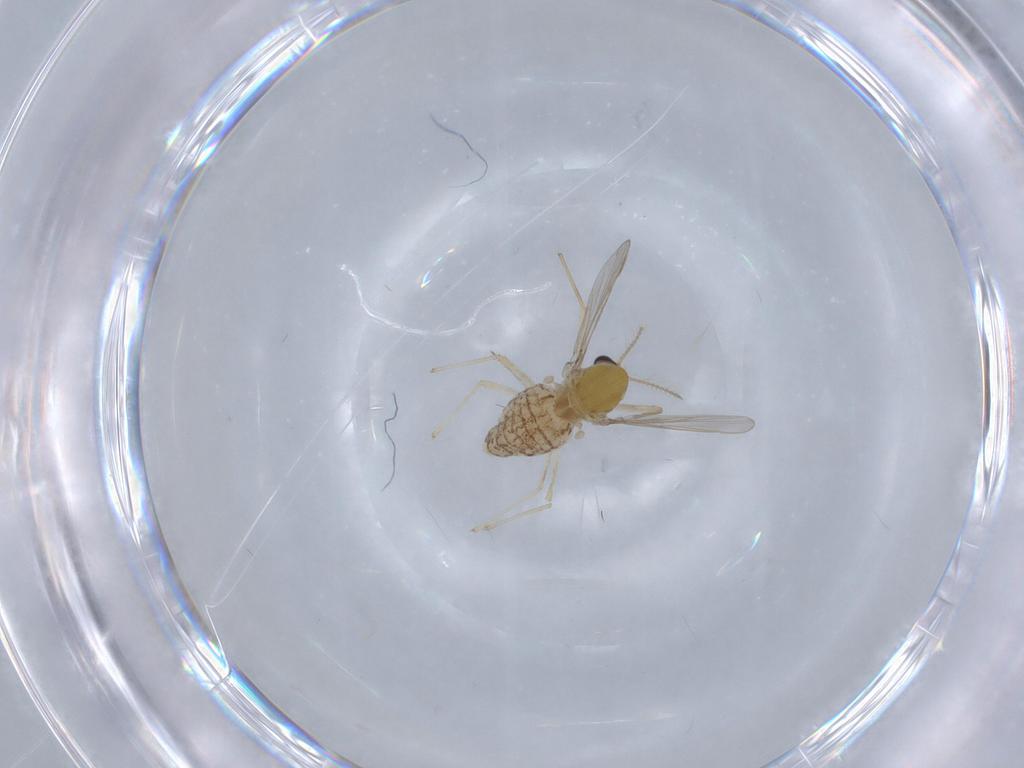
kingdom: Animalia
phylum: Arthropoda
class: Insecta
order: Diptera
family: Chironomidae
